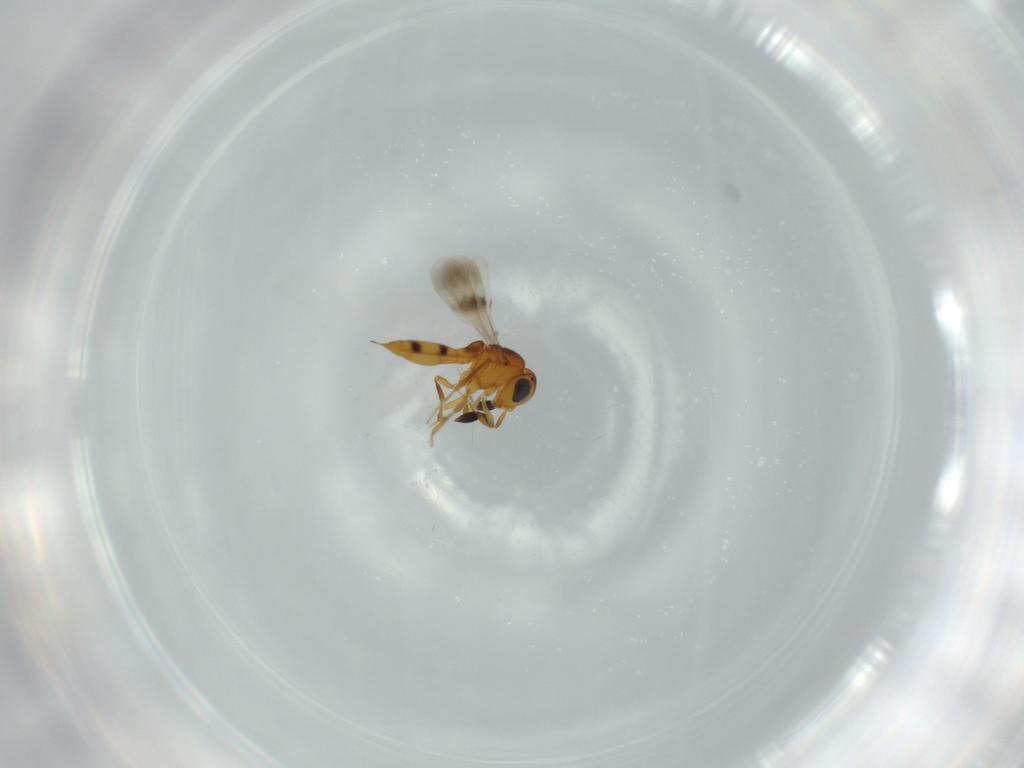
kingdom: Animalia
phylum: Arthropoda
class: Insecta
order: Hymenoptera
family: Scelionidae
